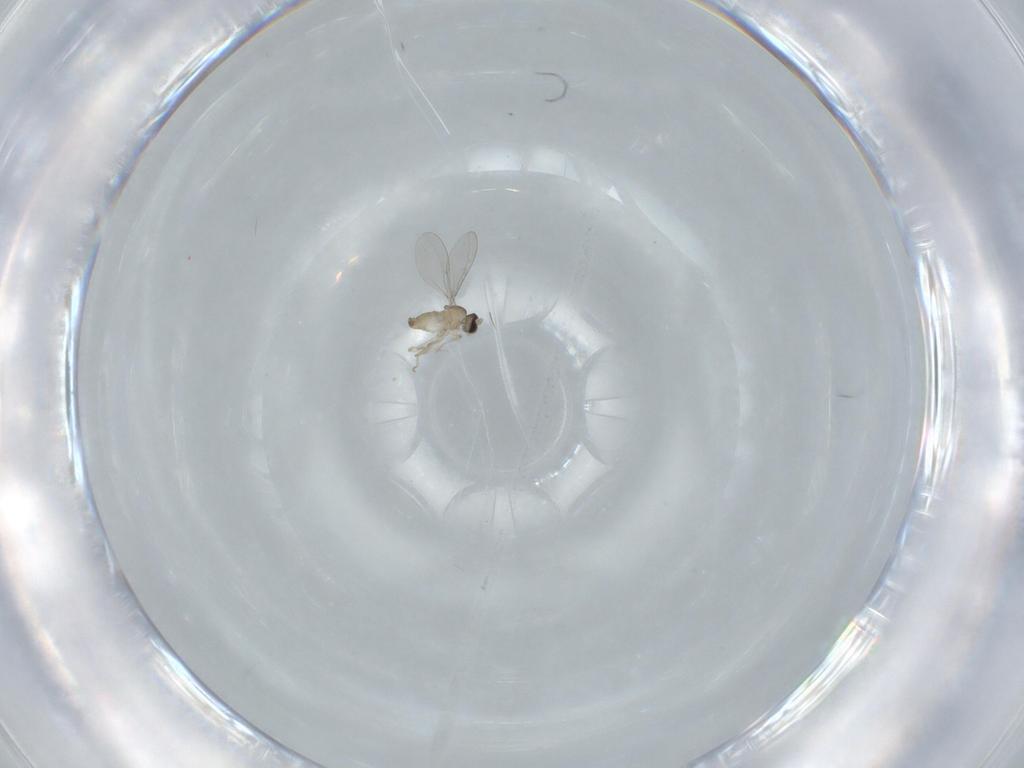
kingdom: Animalia
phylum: Arthropoda
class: Insecta
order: Diptera
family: Cecidomyiidae
